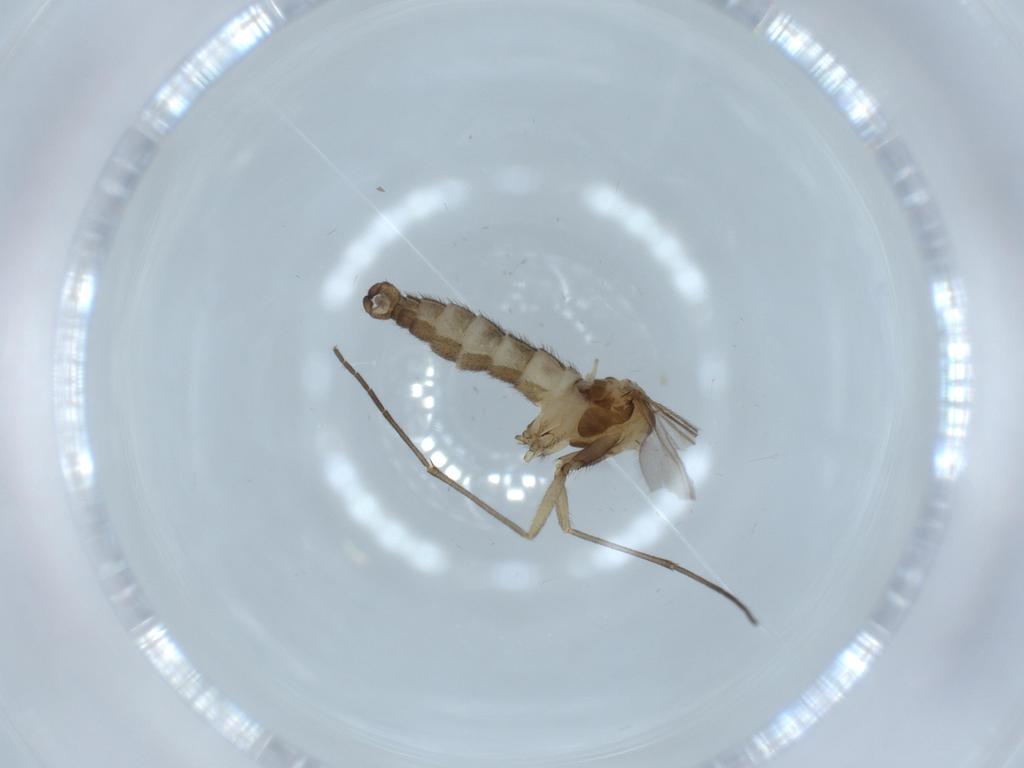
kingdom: Animalia
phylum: Arthropoda
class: Insecta
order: Diptera
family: Sciaridae
